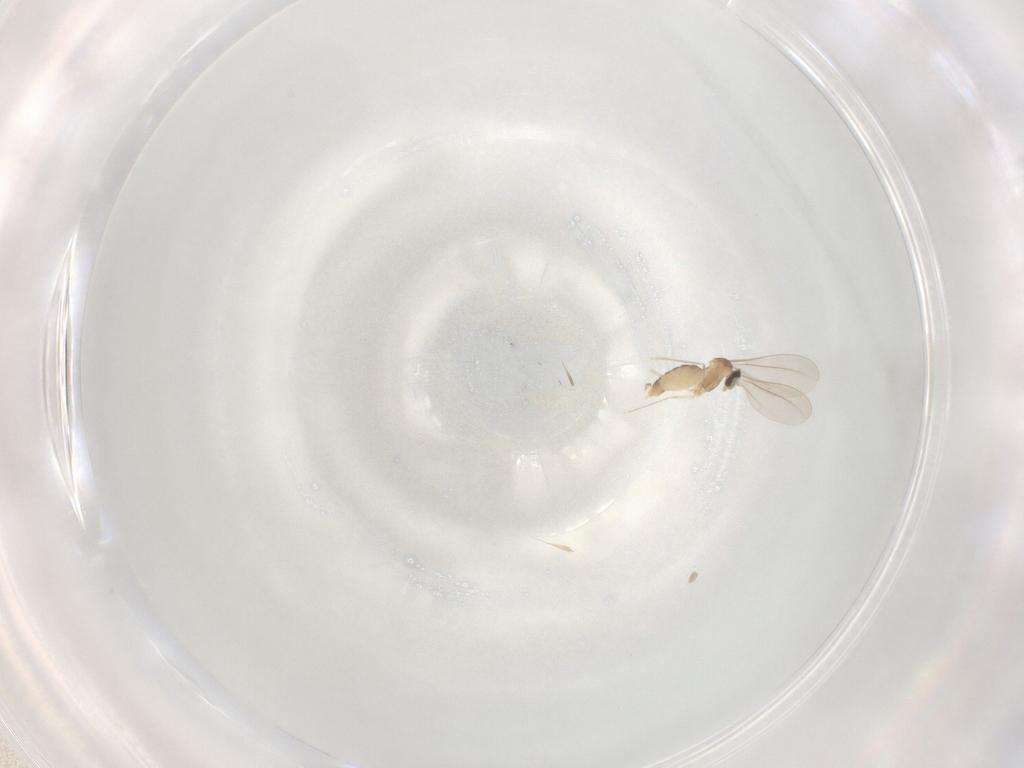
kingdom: Animalia
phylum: Arthropoda
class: Insecta
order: Diptera
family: Cecidomyiidae
